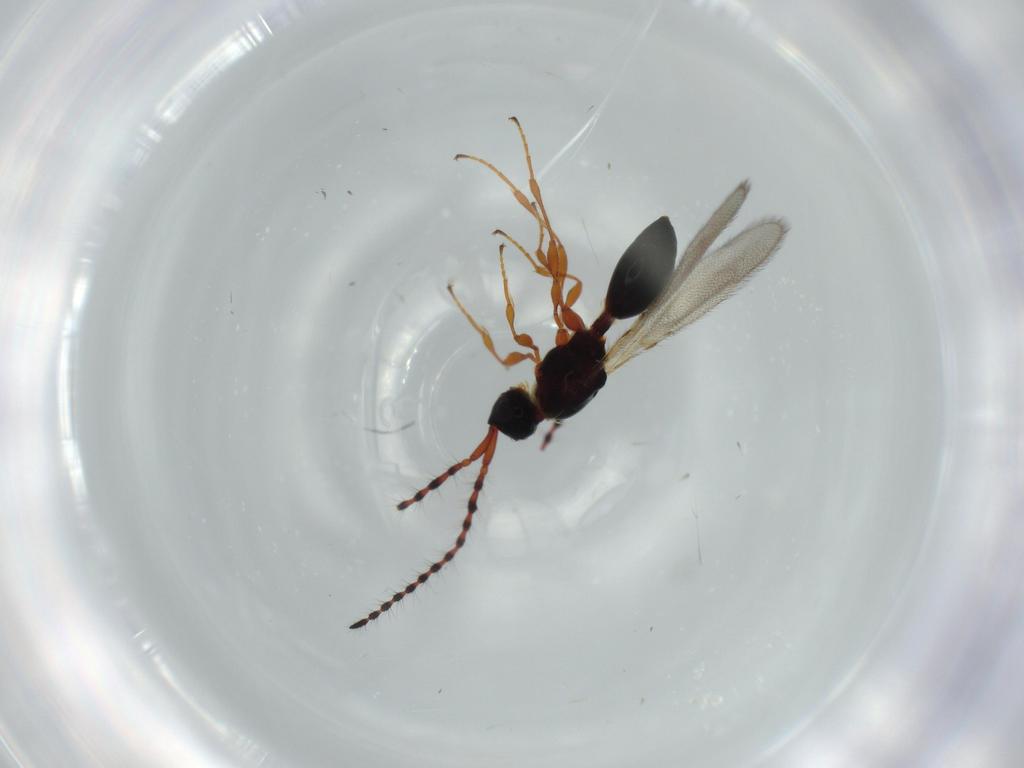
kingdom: Animalia
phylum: Arthropoda
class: Insecta
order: Hymenoptera
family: Diapriidae
